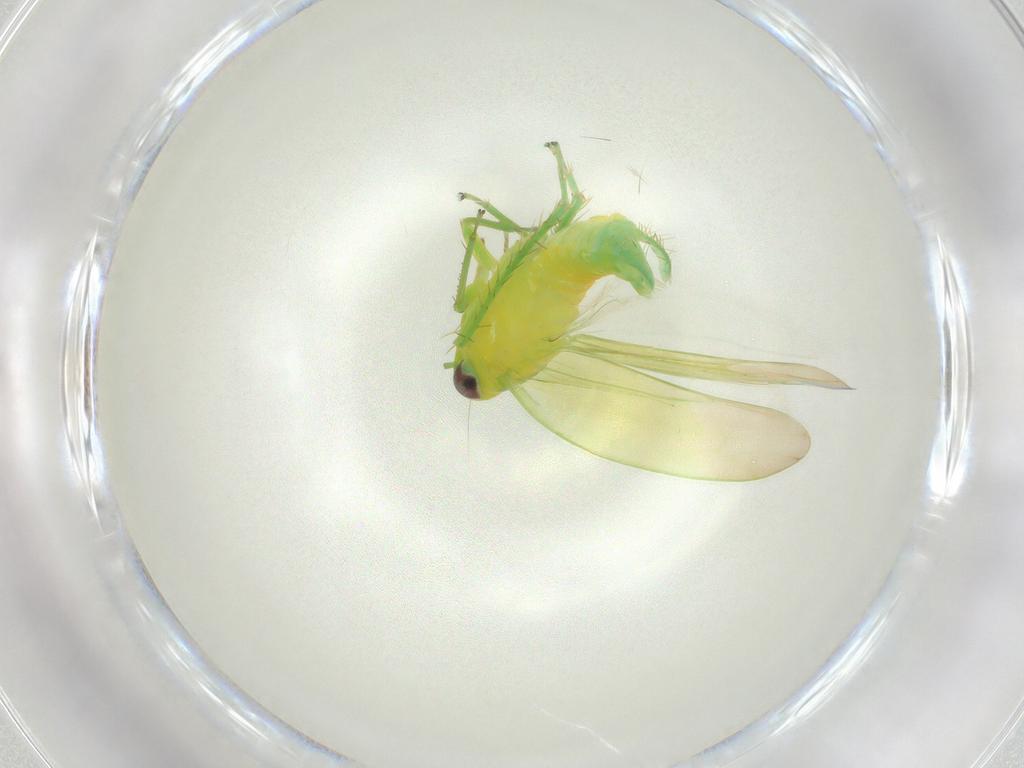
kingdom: Animalia
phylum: Arthropoda
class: Insecta
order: Hemiptera
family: Cicadellidae
